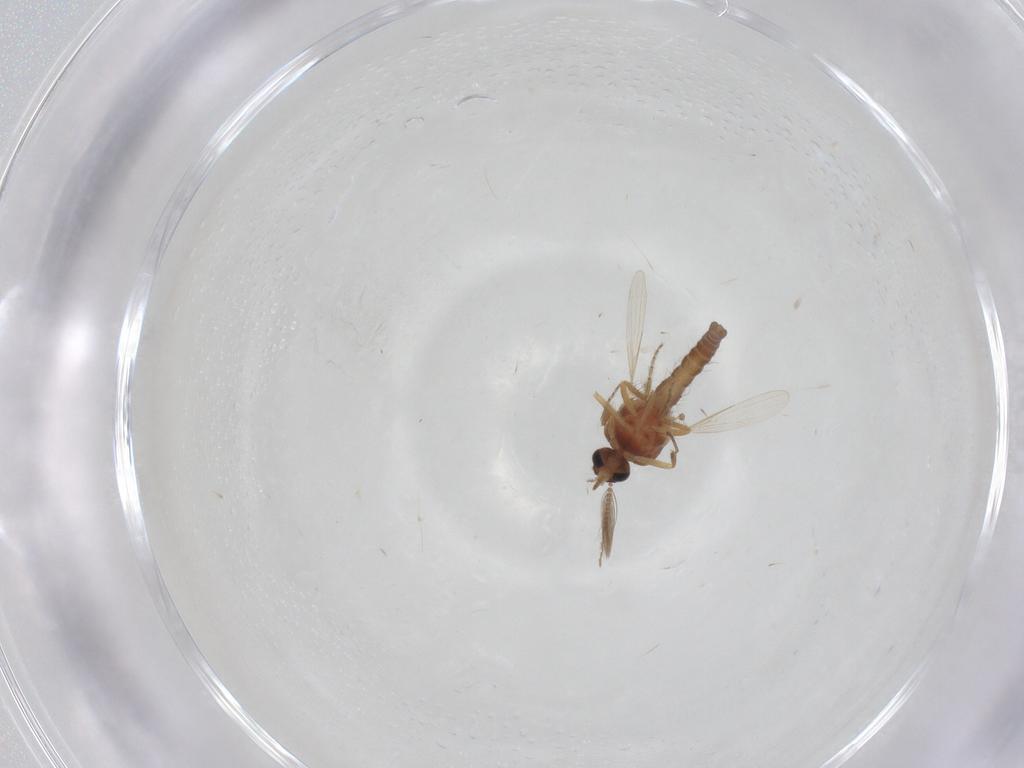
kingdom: Animalia
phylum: Arthropoda
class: Insecta
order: Diptera
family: Ceratopogonidae
